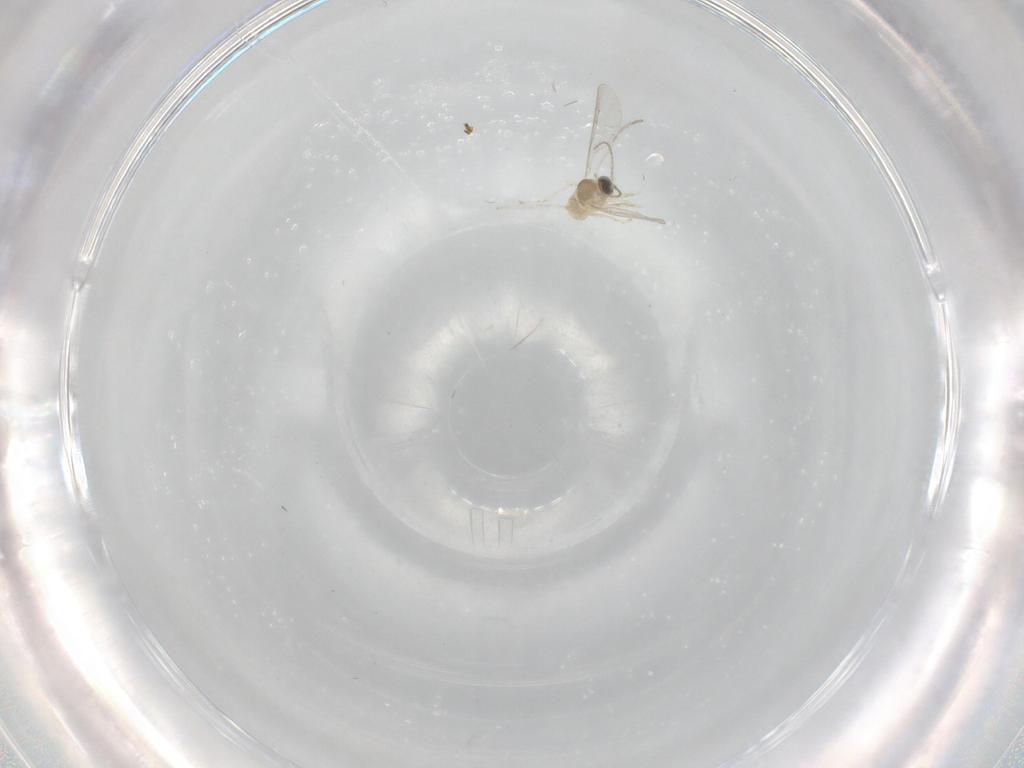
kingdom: Animalia
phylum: Arthropoda
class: Insecta
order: Diptera
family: Cecidomyiidae
